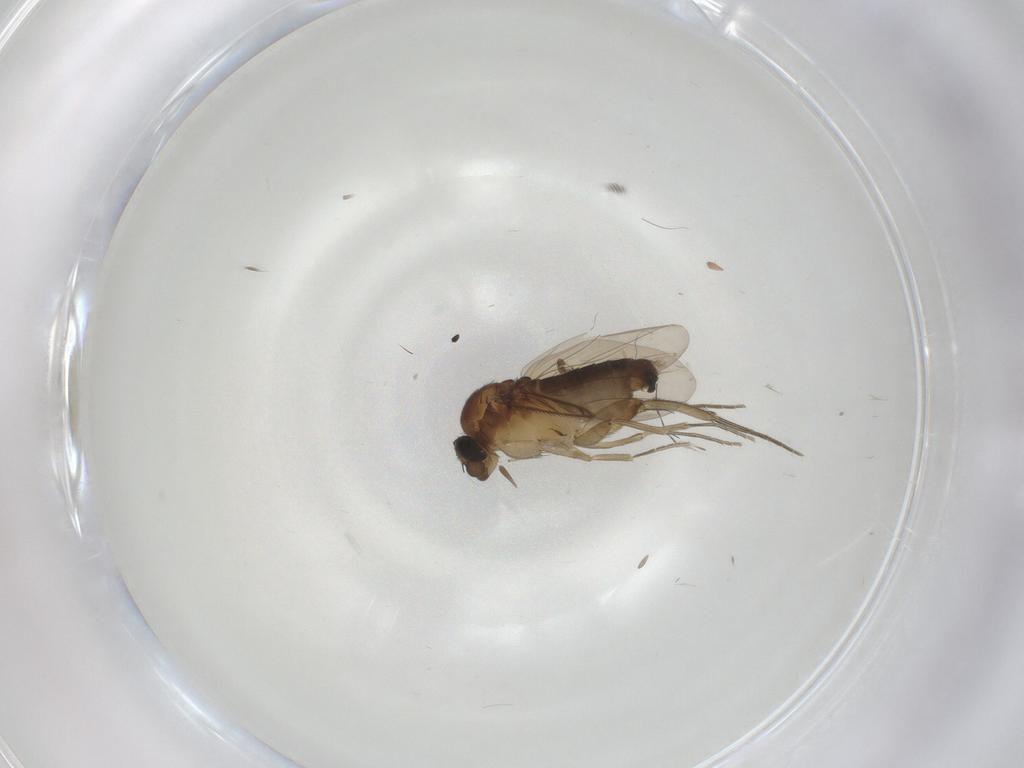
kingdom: Animalia
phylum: Arthropoda
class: Insecta
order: Diptera
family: Phoridae
